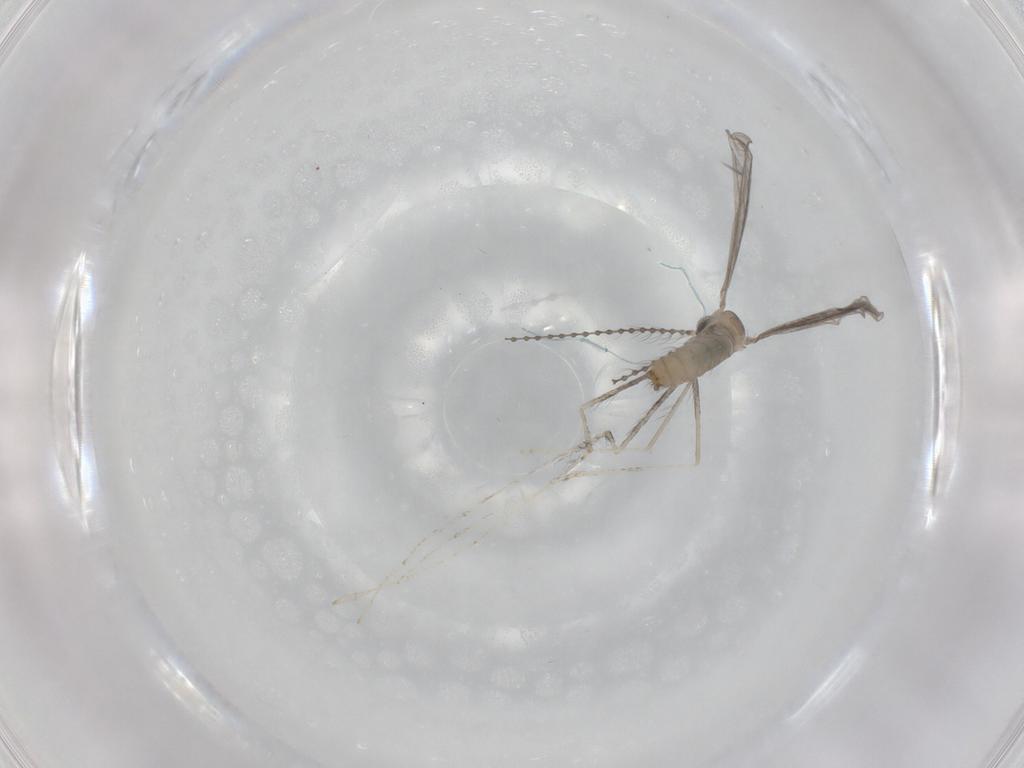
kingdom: Animalia
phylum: Arthropoda
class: Insecta
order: Diptera
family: Cecidomyiidae
